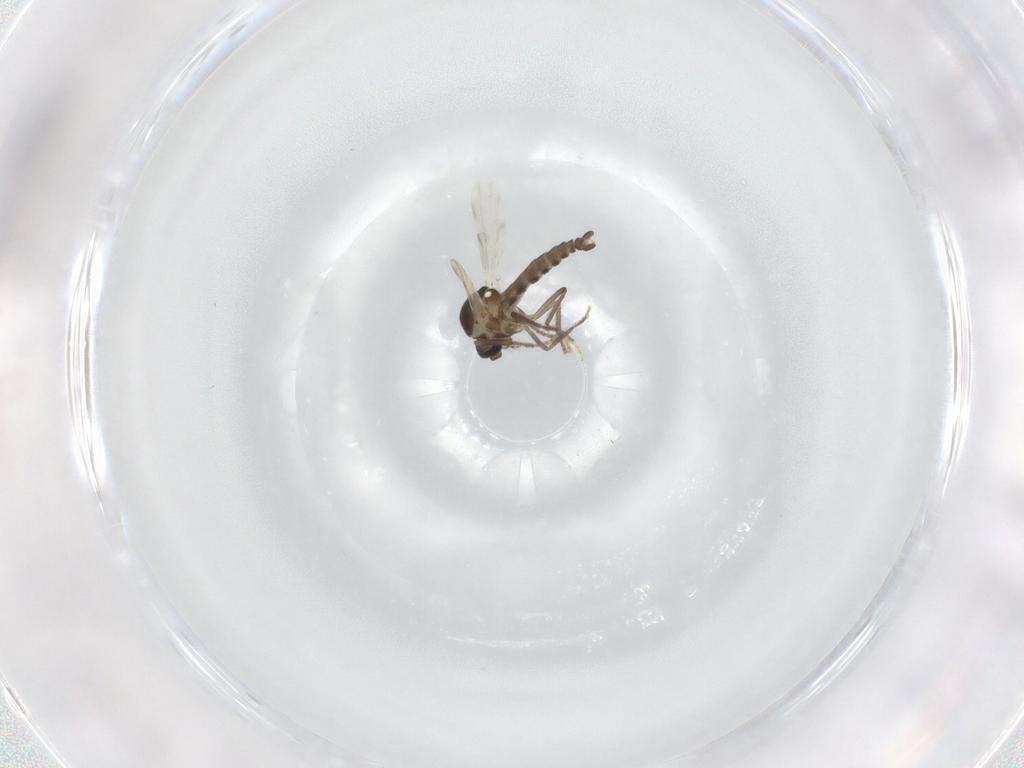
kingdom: Animalia
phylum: Arthropoda
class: Insecta
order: Diptera
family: Ceratopogonidae
